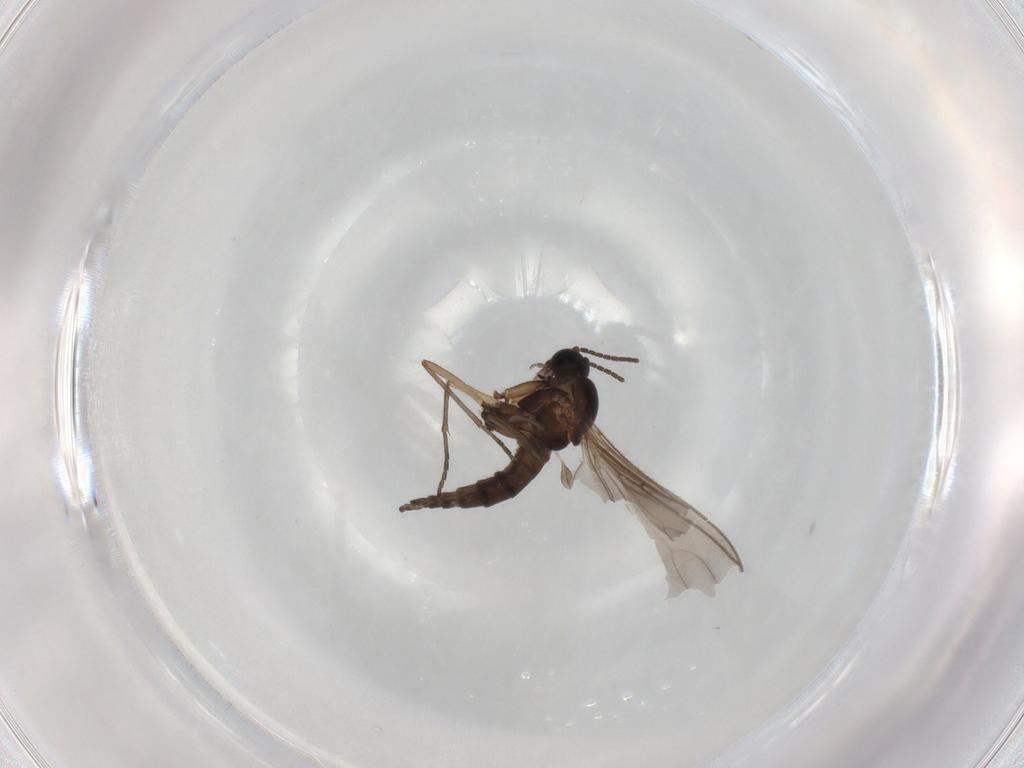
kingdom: Animalia
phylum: Arthropoda
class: Insecta
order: Diptera
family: Sciaridae
